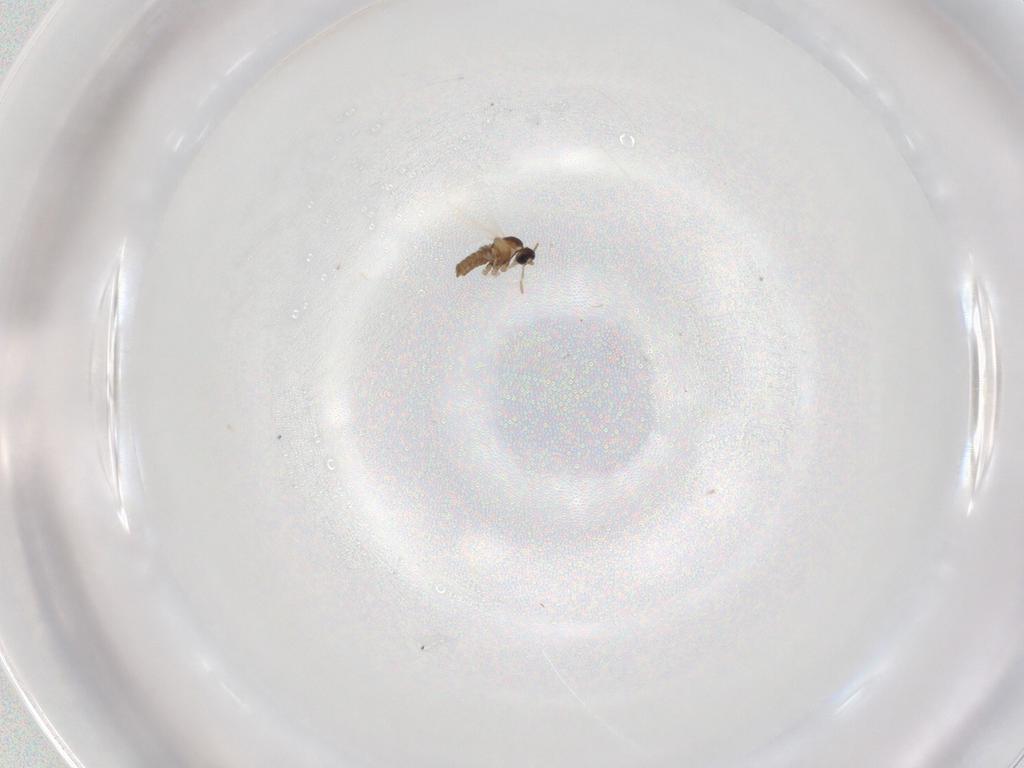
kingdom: Animalia
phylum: Arthropoda
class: Insecta
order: Diptera
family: Cecidomyiidae
